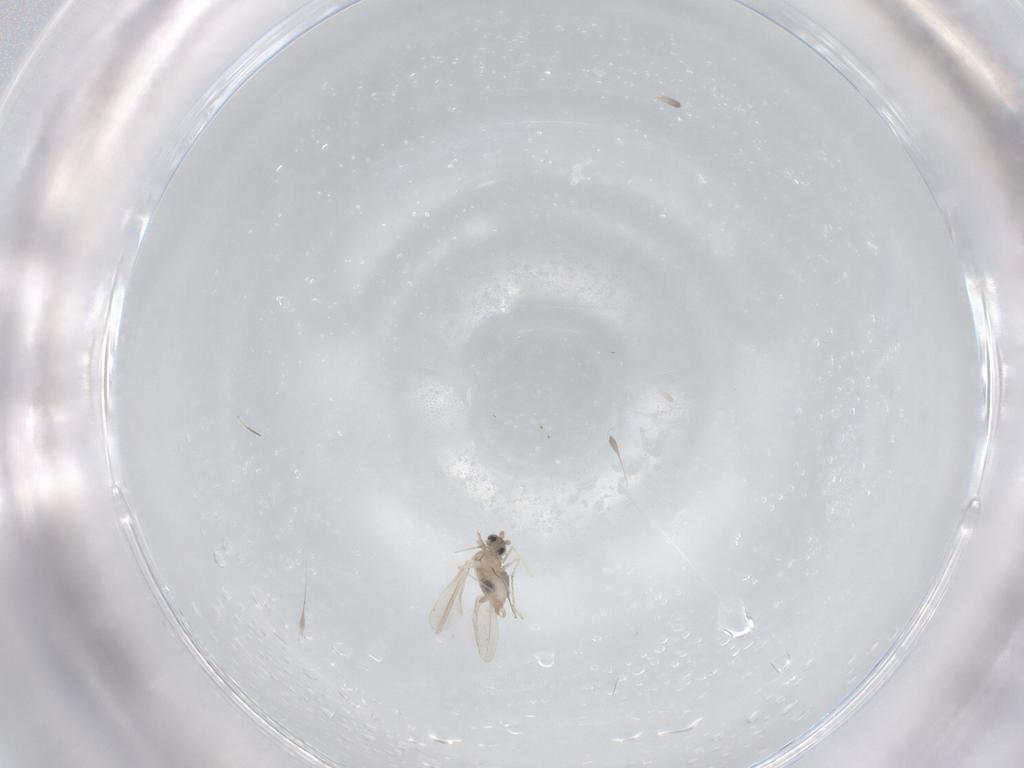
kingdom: Animalia
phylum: Arthropoda
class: Insecta
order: Diptera
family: Cecidomyiidae
